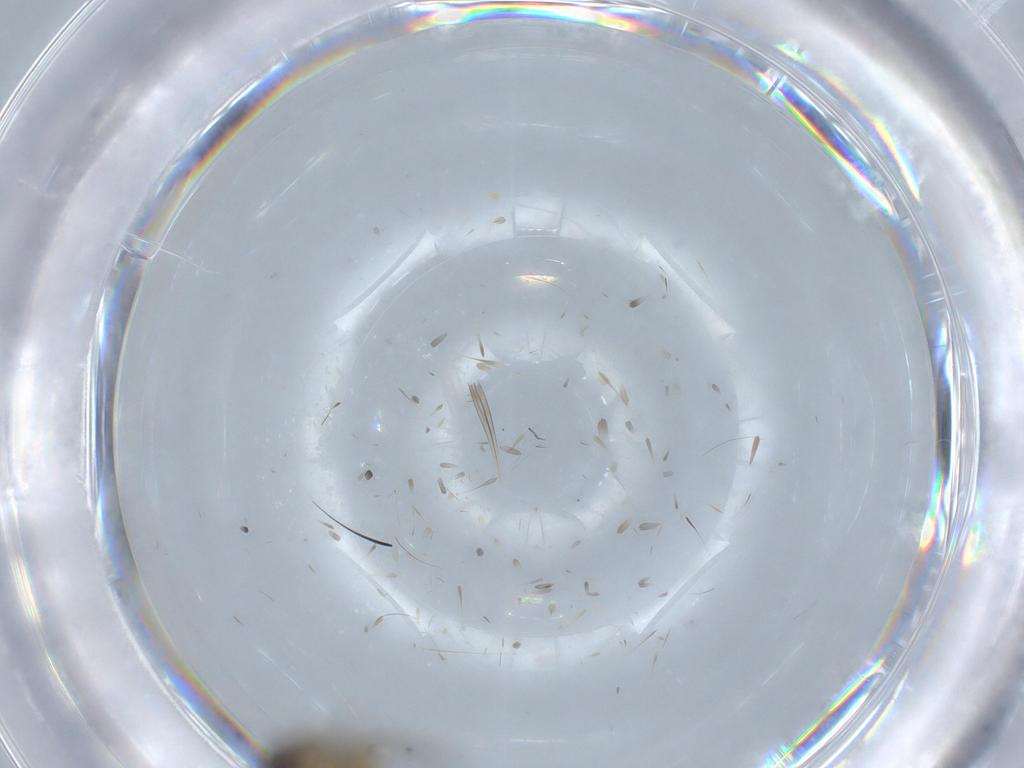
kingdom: Animalia
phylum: Arthropoda
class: Insecta
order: Diptera
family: Phoridae
